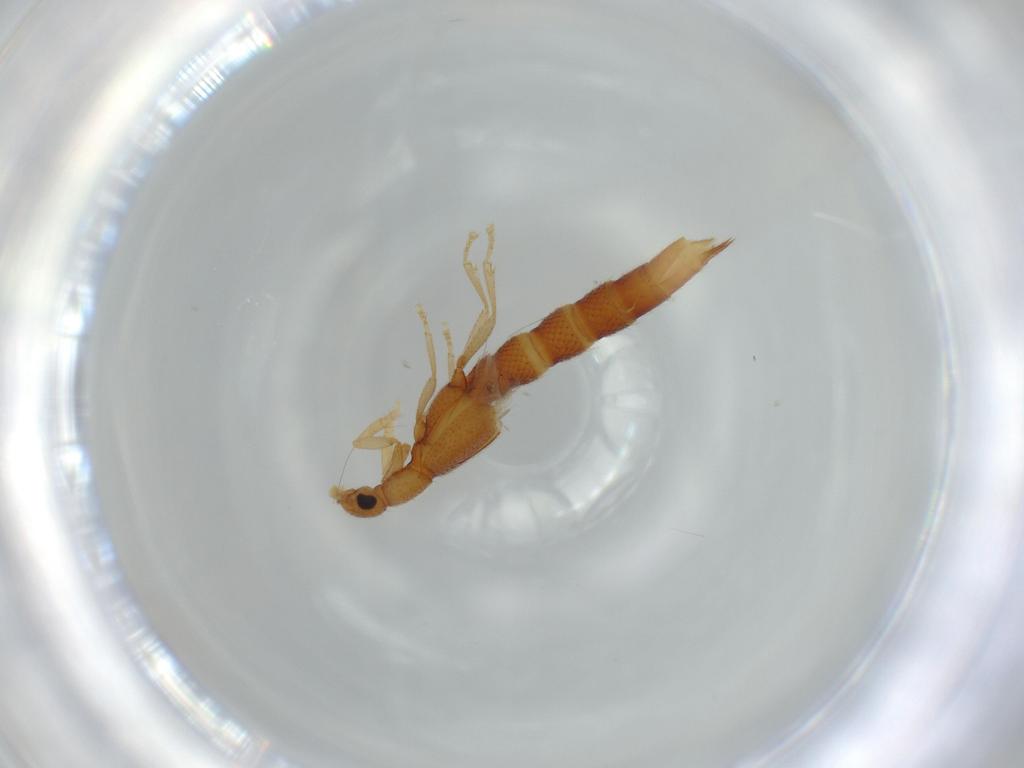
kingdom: Animalia
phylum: Arthropoda
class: Insecta
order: Coleoptera
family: Staphylinidae
